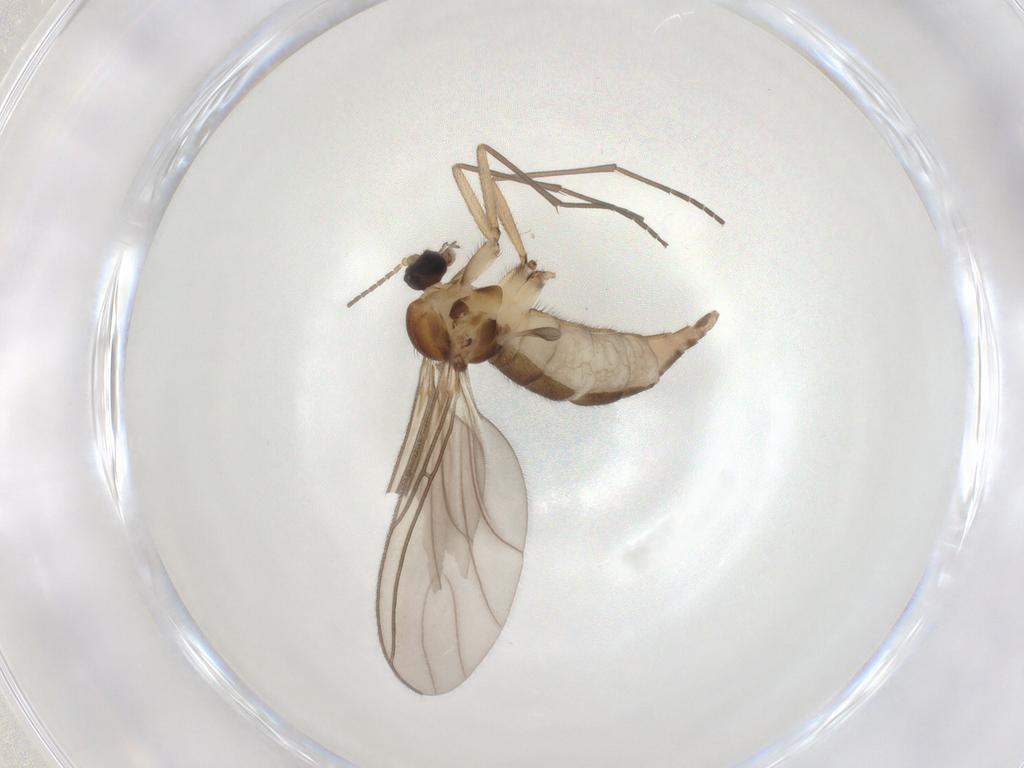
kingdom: Animalia
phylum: Arthropoda
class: Insecta
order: Diptera
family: Sciaridae
